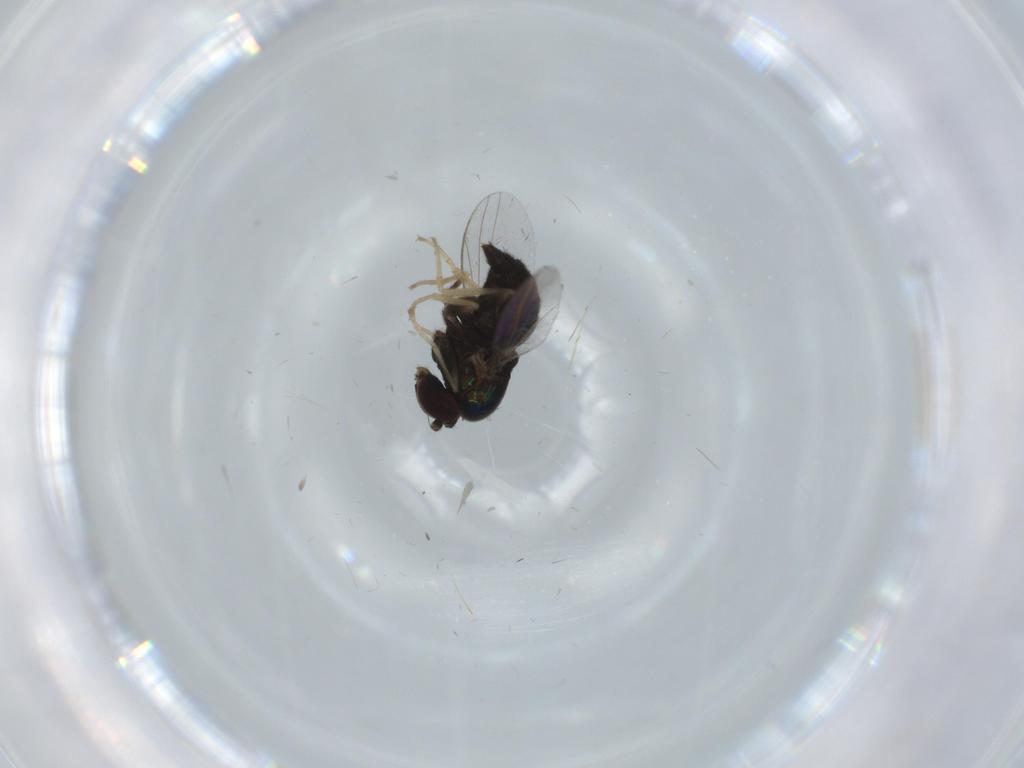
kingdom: Animalia
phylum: Arthropoda
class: Insecta
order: Diptera
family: Dolichopodidae
